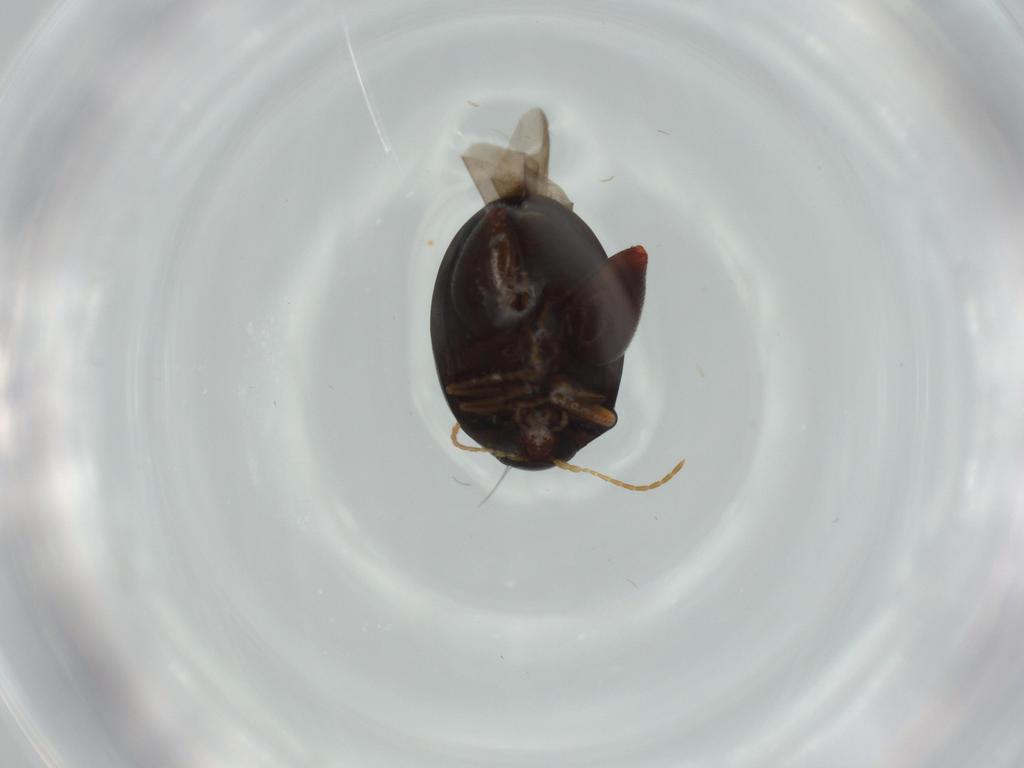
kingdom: Animalia
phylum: Arthropoda
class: Insecta
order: Coleoptera
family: Chrysomelidae
